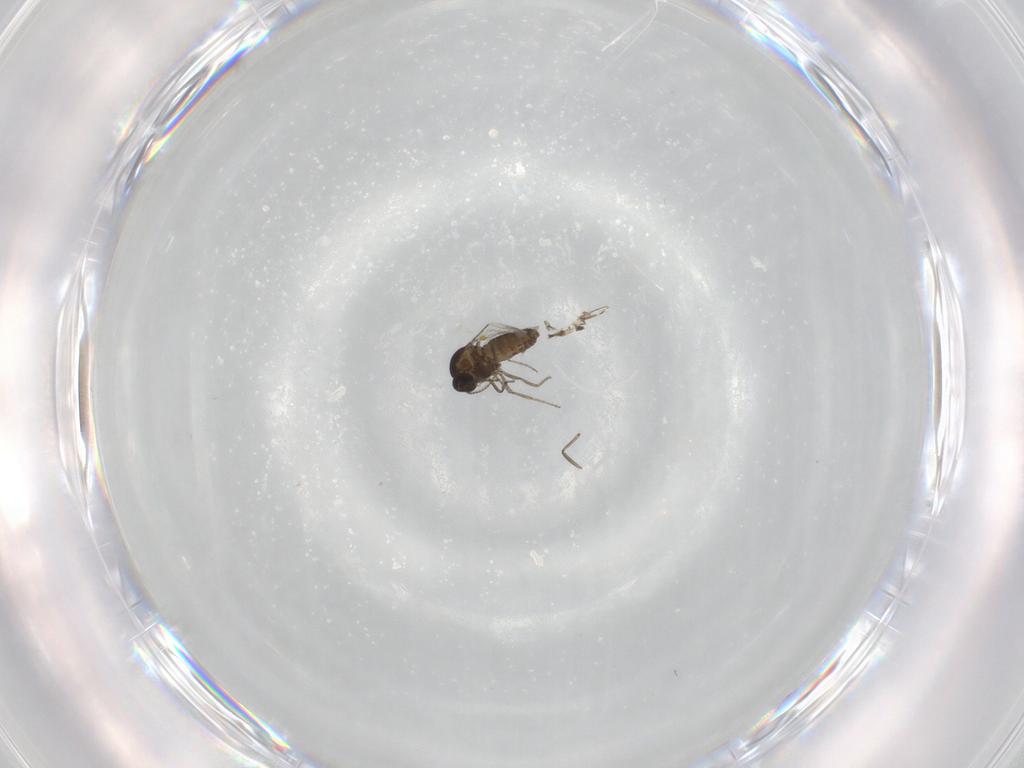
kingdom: Animalia
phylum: Arthropoda
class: Insecta
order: Diptera
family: Ceratopogonidae
